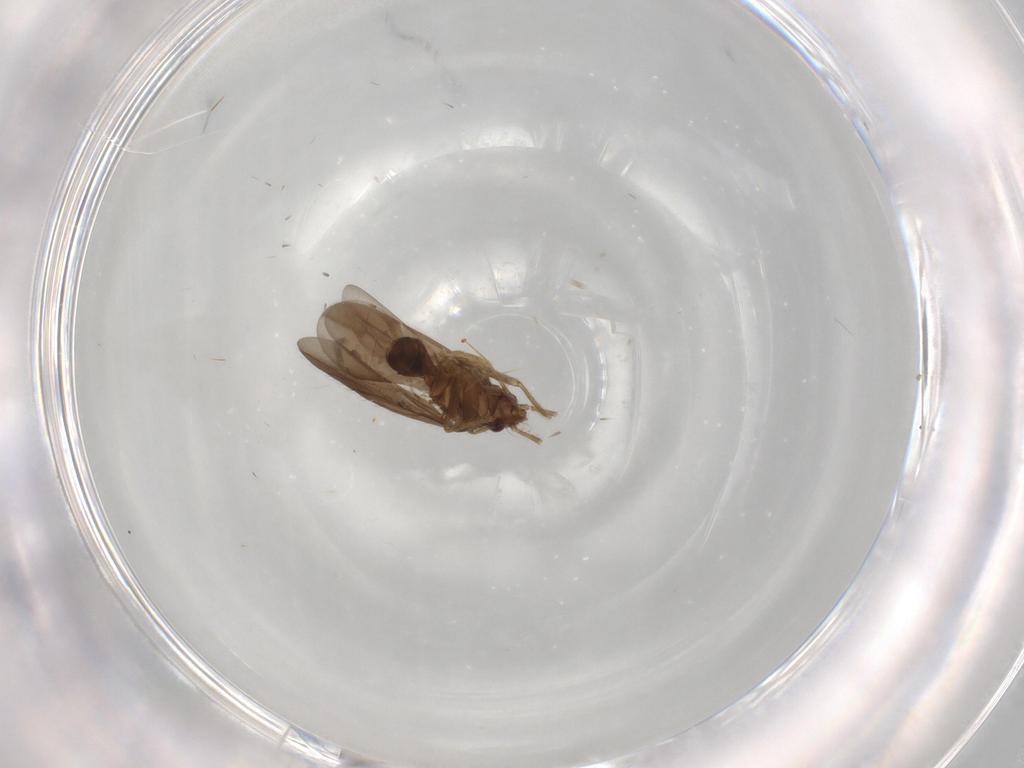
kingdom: Animalia
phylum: Arthropoda
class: Insecta
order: Hemiptera
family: Ceratocombidae
